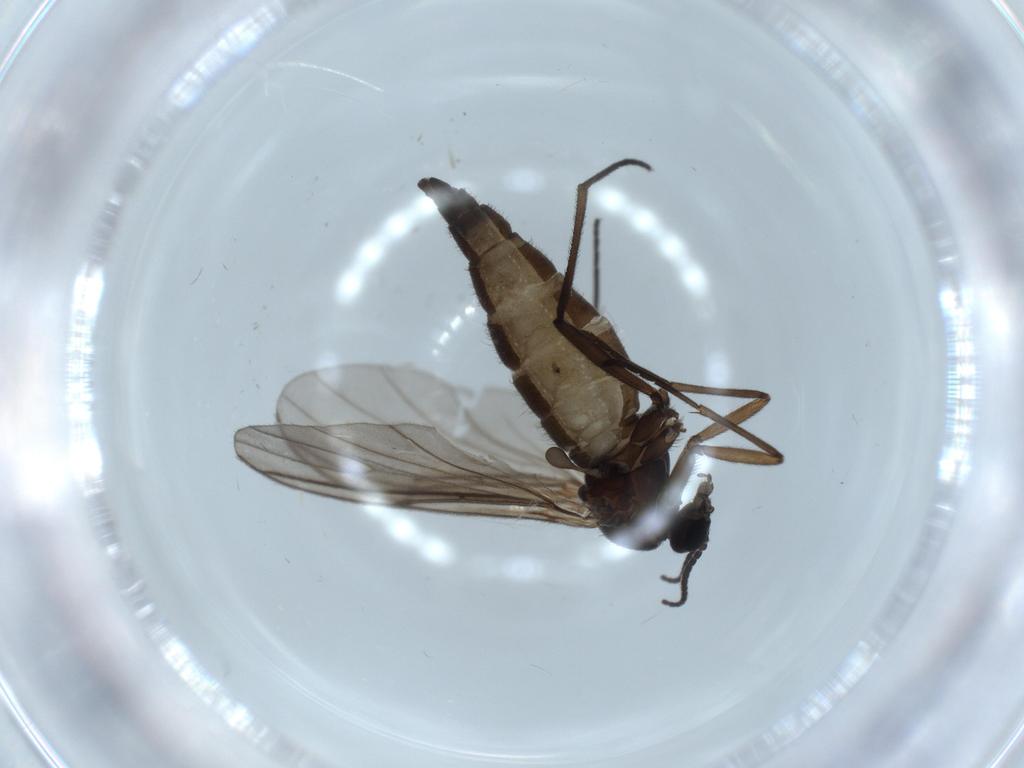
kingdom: Animalia
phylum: Arthropoda
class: Insecta
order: Diptera
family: Sciaridae
